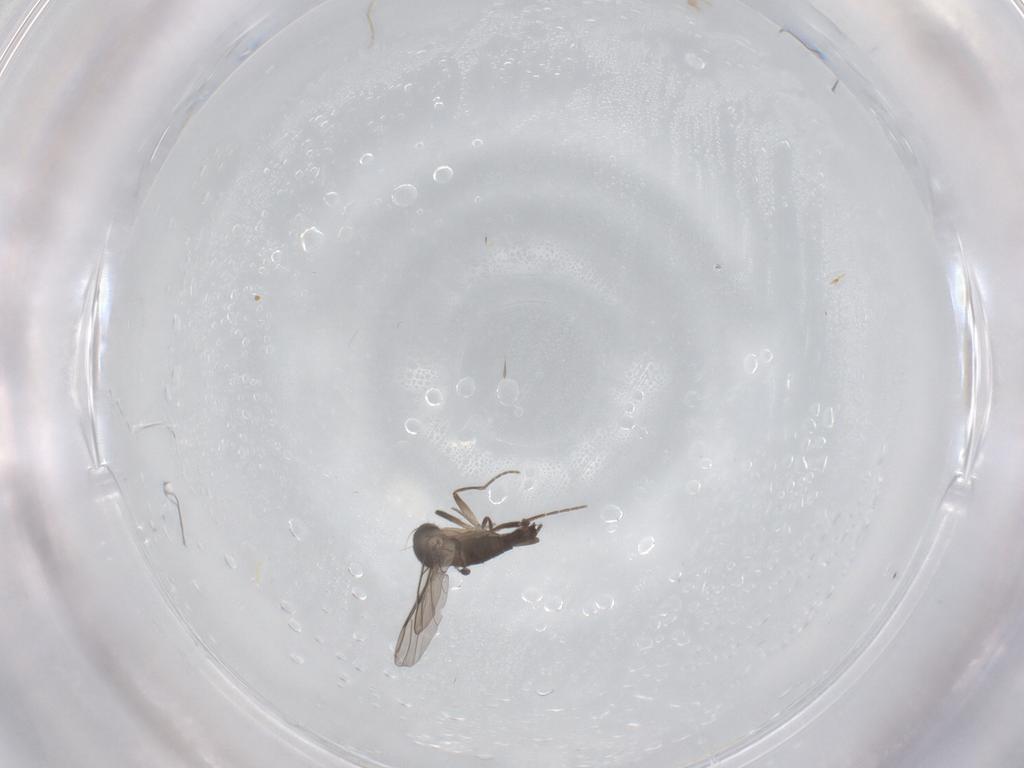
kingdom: Animalia
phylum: Arthropoda
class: Insecta
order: Diptera
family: Phoridae
